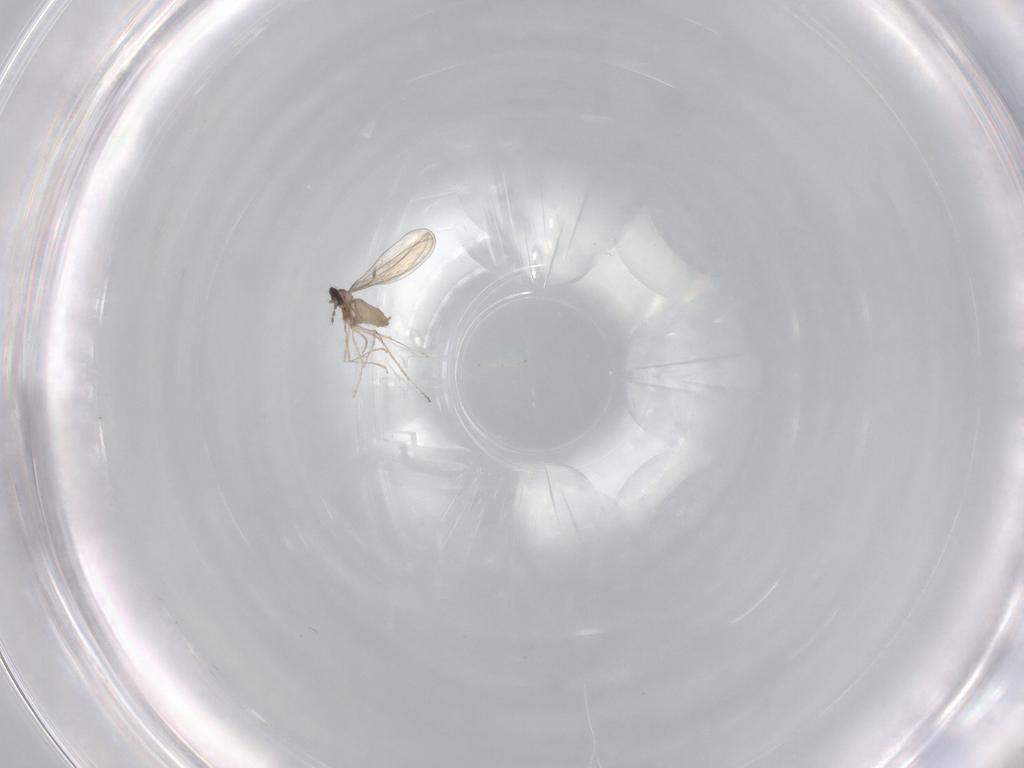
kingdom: Animalia
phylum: Arthropoda
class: Insecta
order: Diptera
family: Cecidomyiidae
